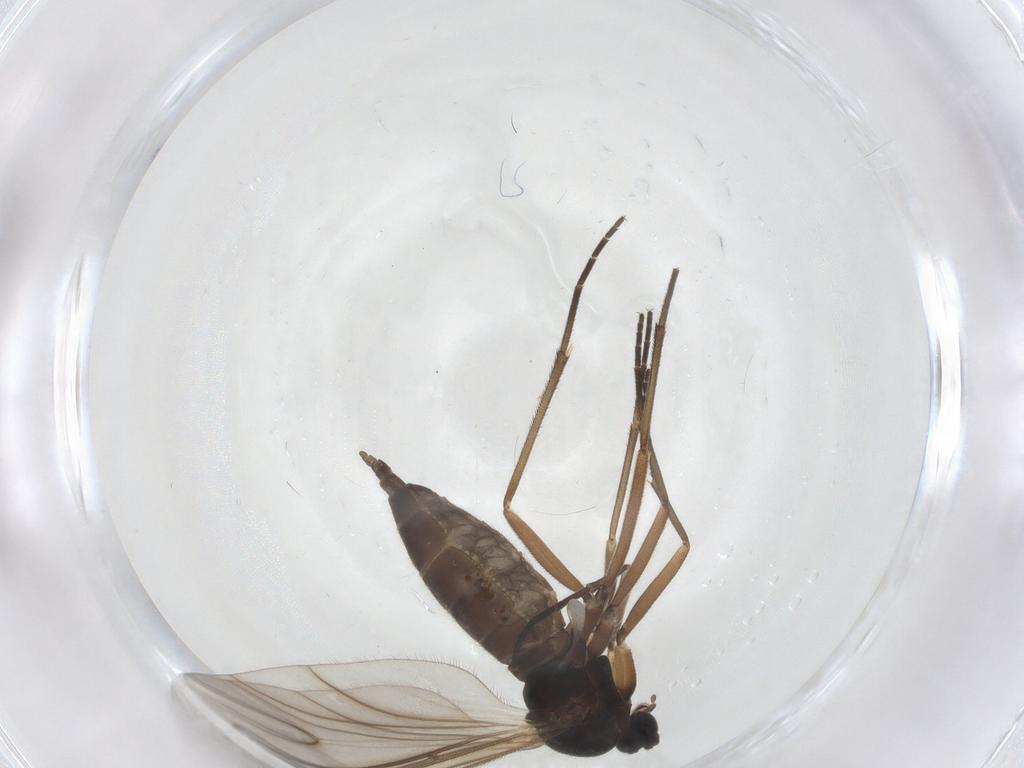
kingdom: Animalia
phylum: Arthropoda
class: Insecta
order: Diptera
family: Sciaridae
